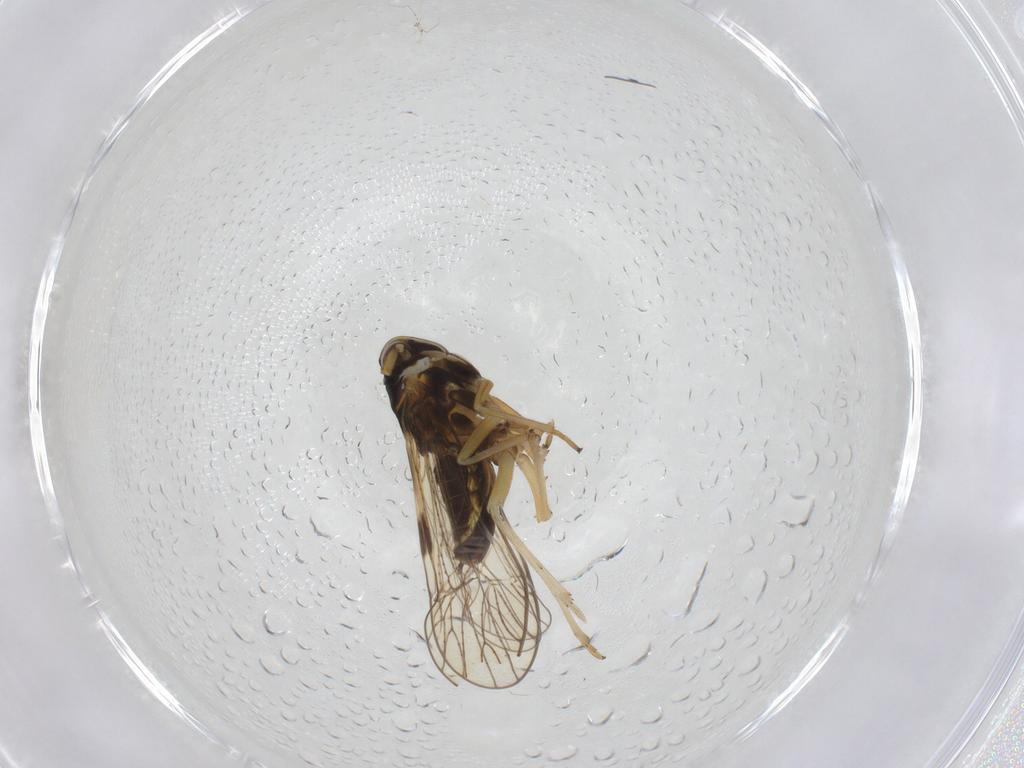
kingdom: Animalia
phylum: Arthropoda
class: Insecta
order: Hemiptera
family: Aphididae
